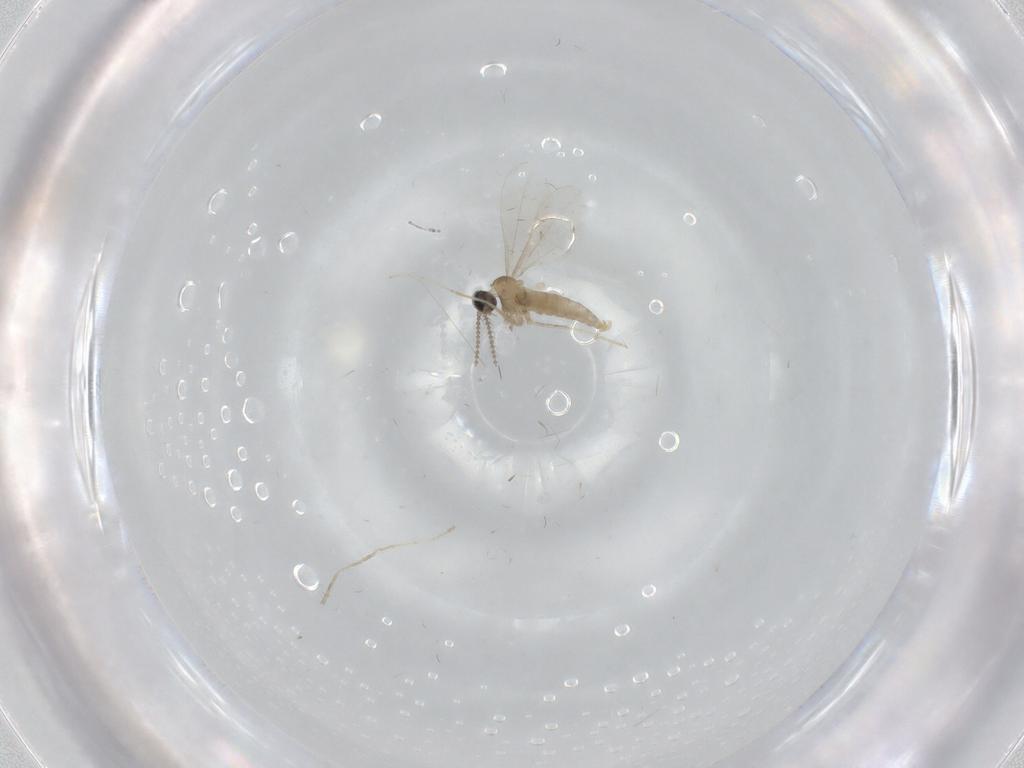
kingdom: Animalia
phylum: Arthropoda
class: Insecta
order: Diptera
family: Cecidomyiidae
